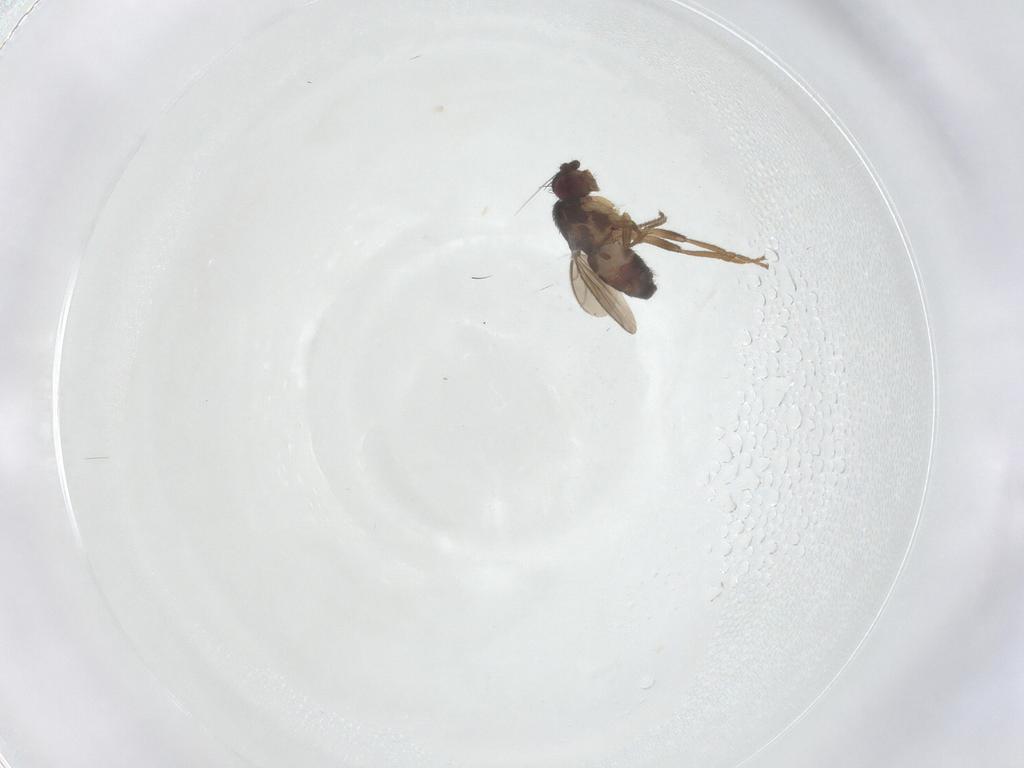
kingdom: Animalia
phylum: Arthropoda
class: Insecta
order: Diptera
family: Sphaeroceridae
